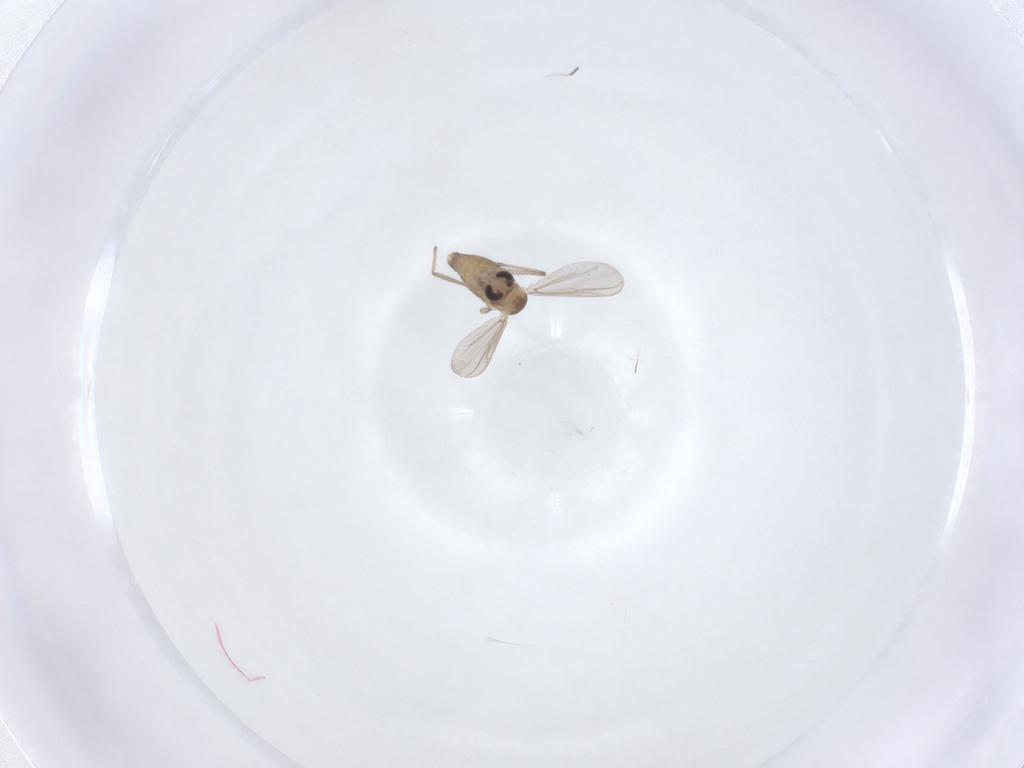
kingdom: Animalia
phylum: Arthropoda
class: Insecta
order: Diptera
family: Chironomidae
